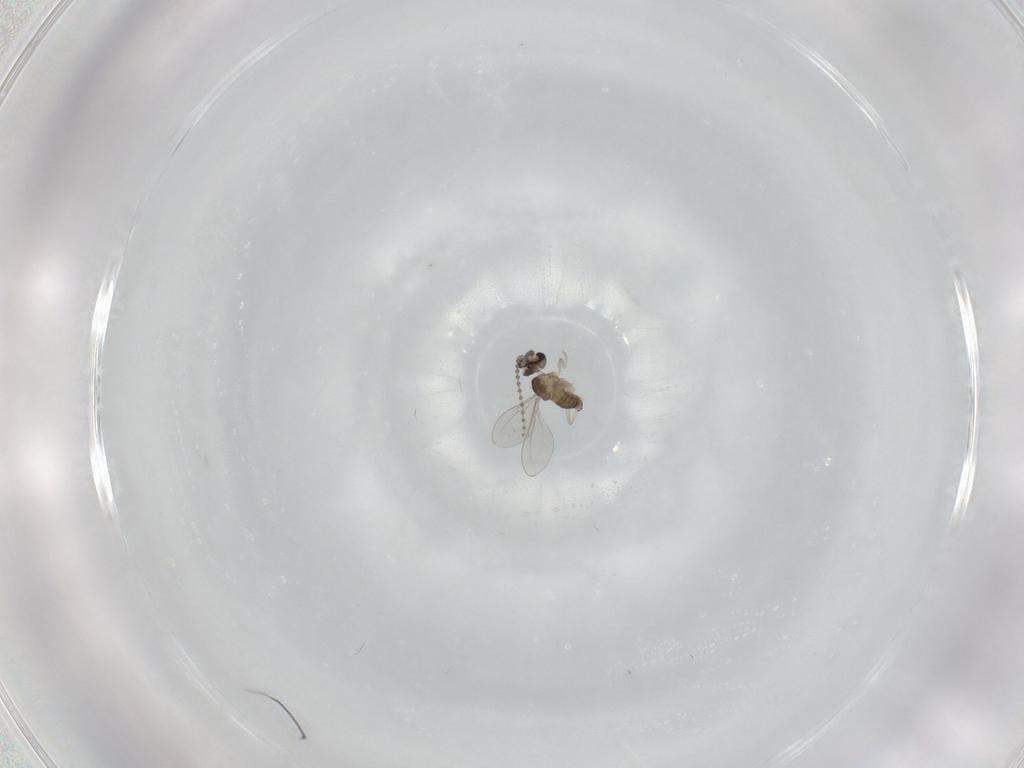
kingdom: Animalia
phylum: Arthropoda
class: Insecta
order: Diptera
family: Cecidomyiidae
